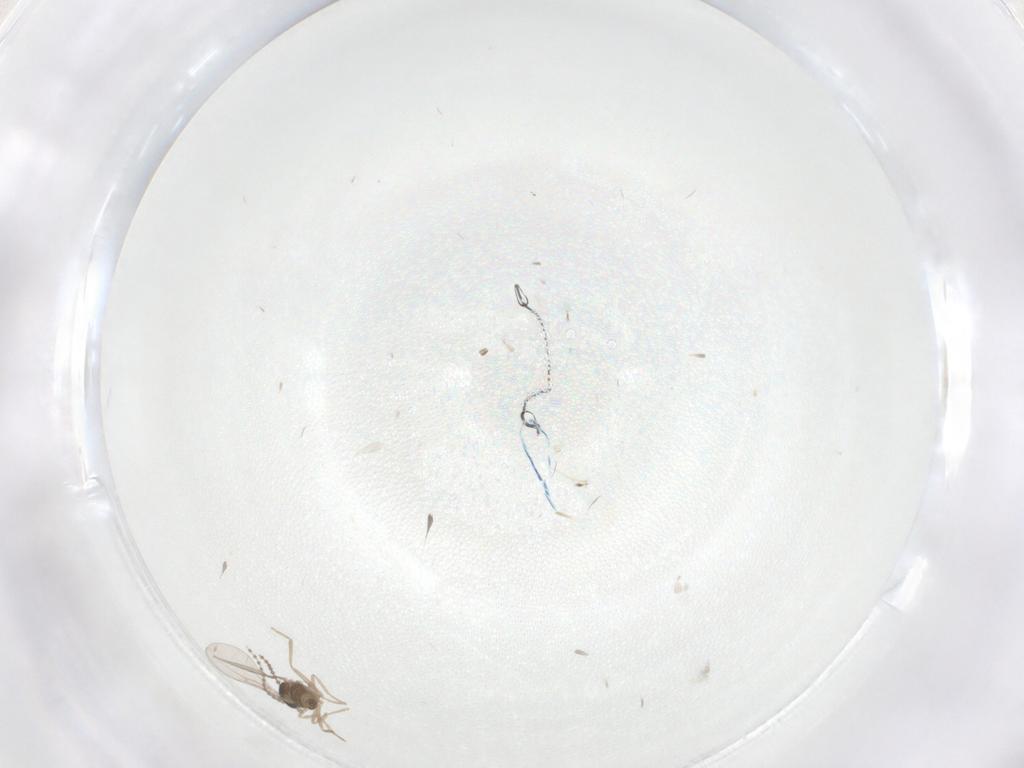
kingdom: Animalia
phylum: Arthropoda
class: Insecta
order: Diptera
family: Cecidomyiidae
